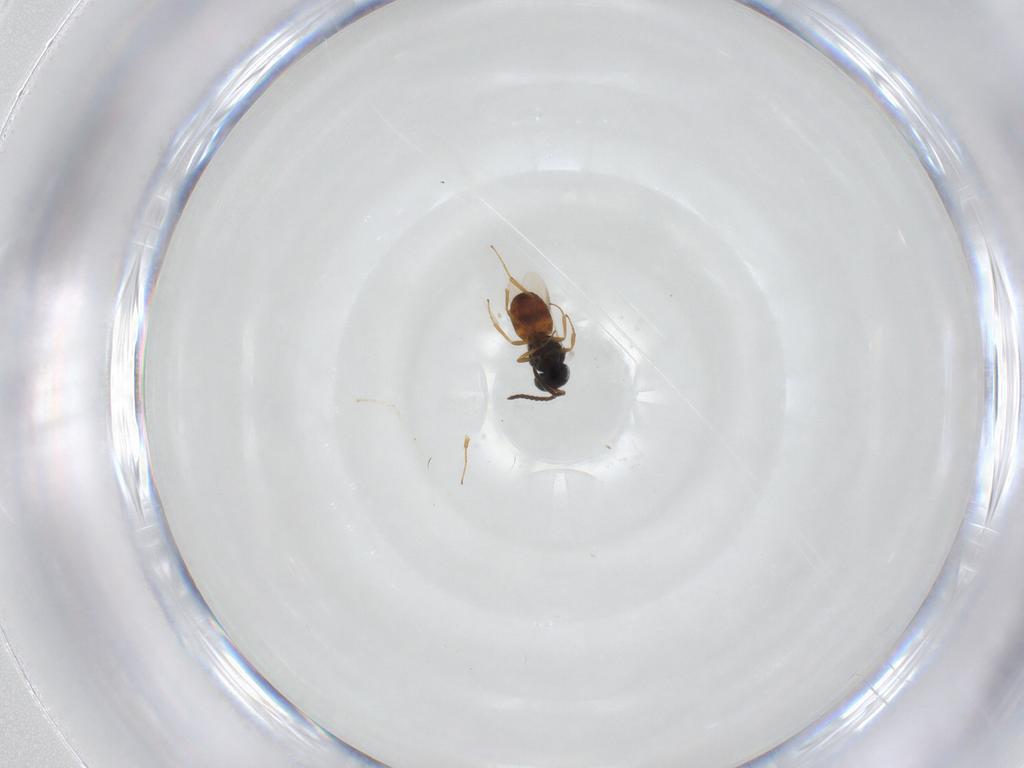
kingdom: Animalia
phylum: Arthropoda
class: Insecta
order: Hymenoptera
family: Scelionidae
